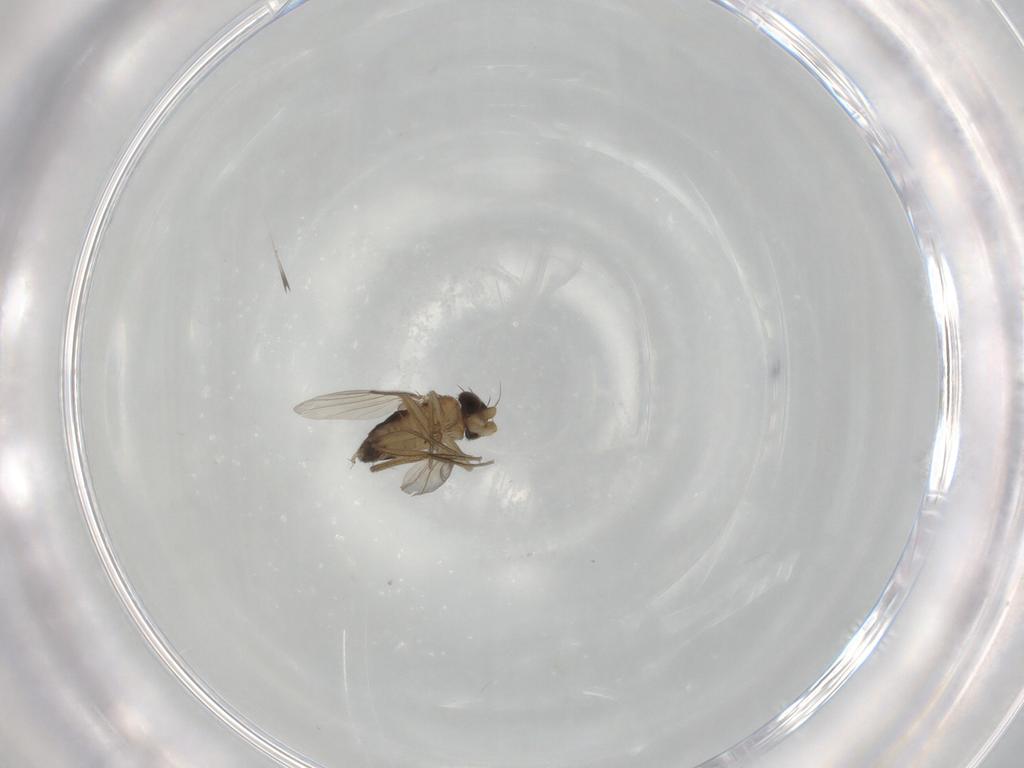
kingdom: Animalia
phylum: Arthropoda
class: Insecta
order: Diptera
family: Phoridae
